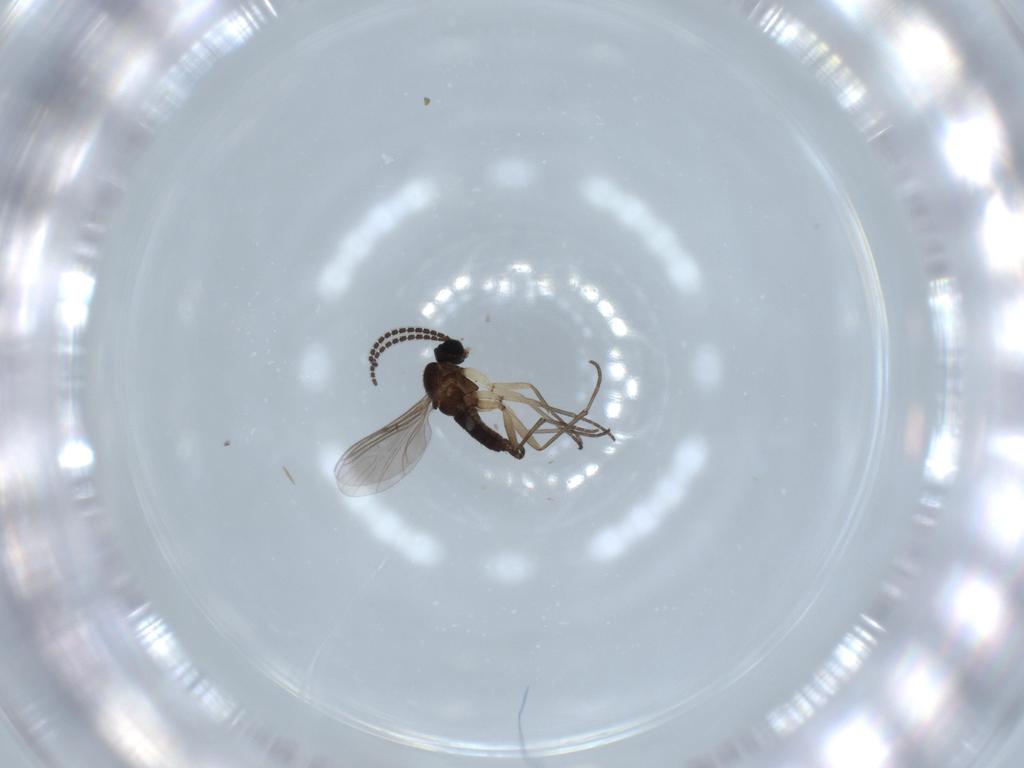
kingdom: Animalia
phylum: Arthropoda
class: Insecta
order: Diptera
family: Sciaridae
